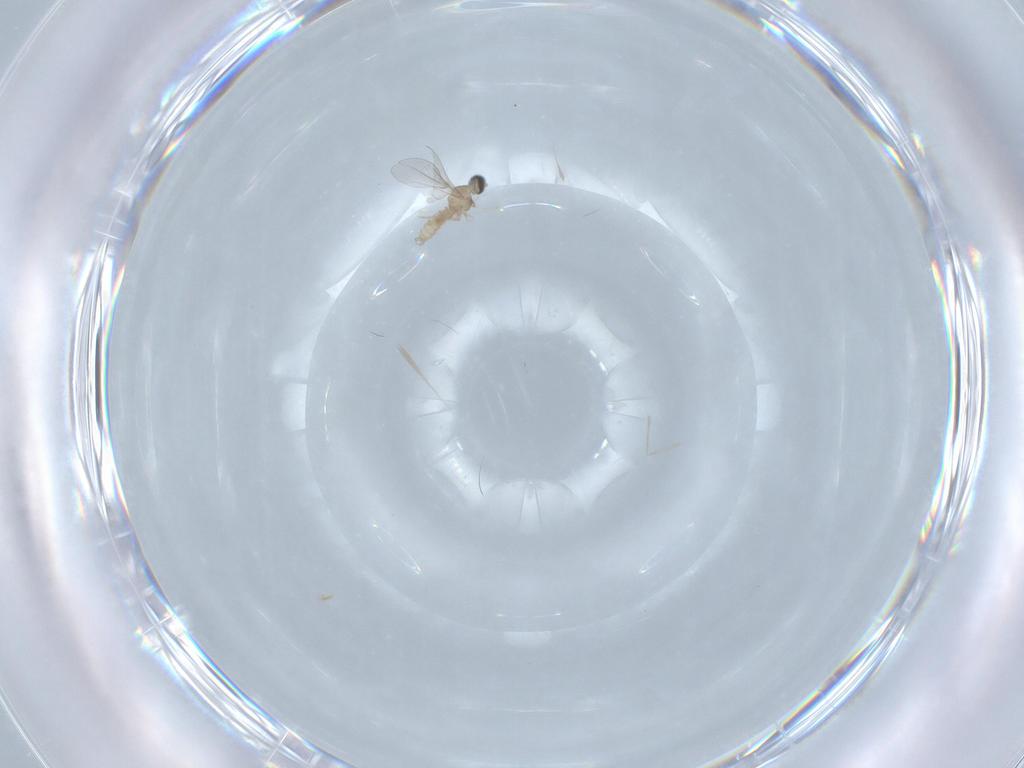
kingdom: Animalia
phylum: Arthropoda
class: Insecta
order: Diptera
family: Cecidomyiidae
